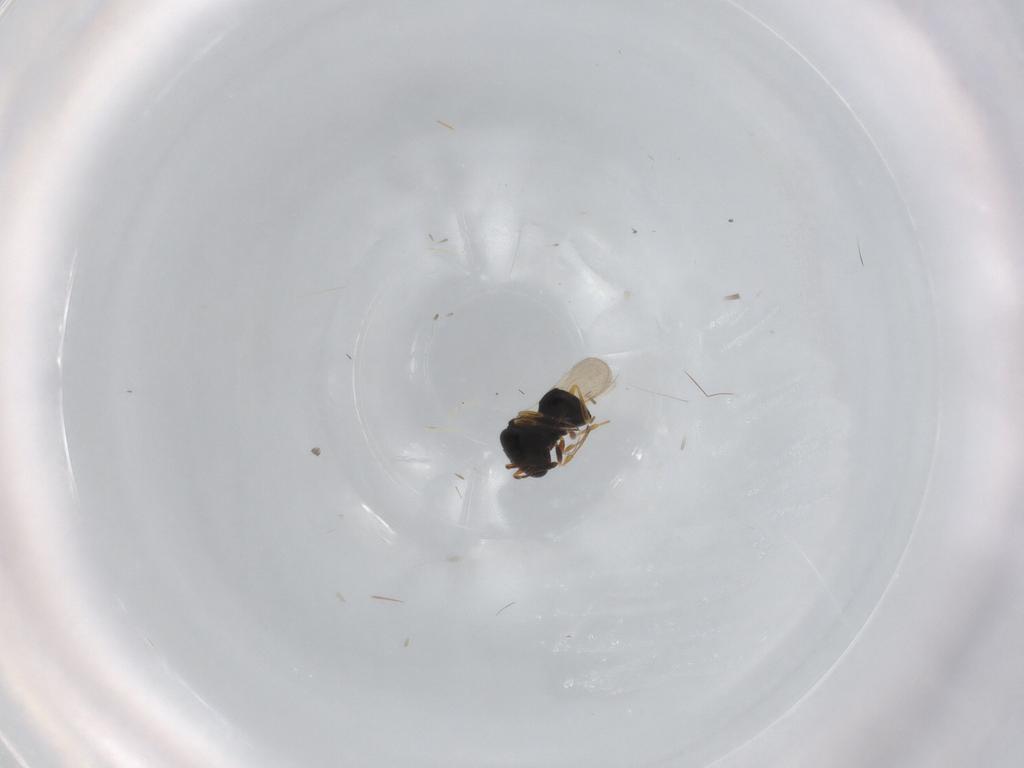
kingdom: Animalia
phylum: Arthropoda
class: Insecta
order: Hymenoptera
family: Scelionidae
